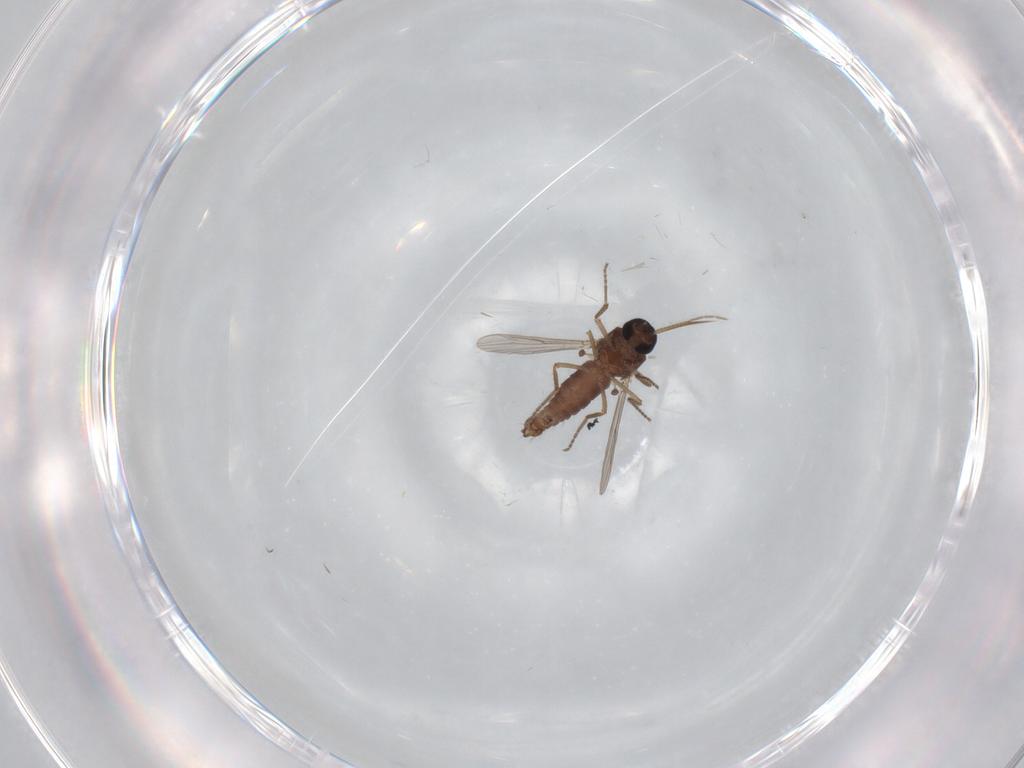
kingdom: Animalia
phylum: Arthropoda
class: Insecta
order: Diptera
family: Ceratopogonidae
